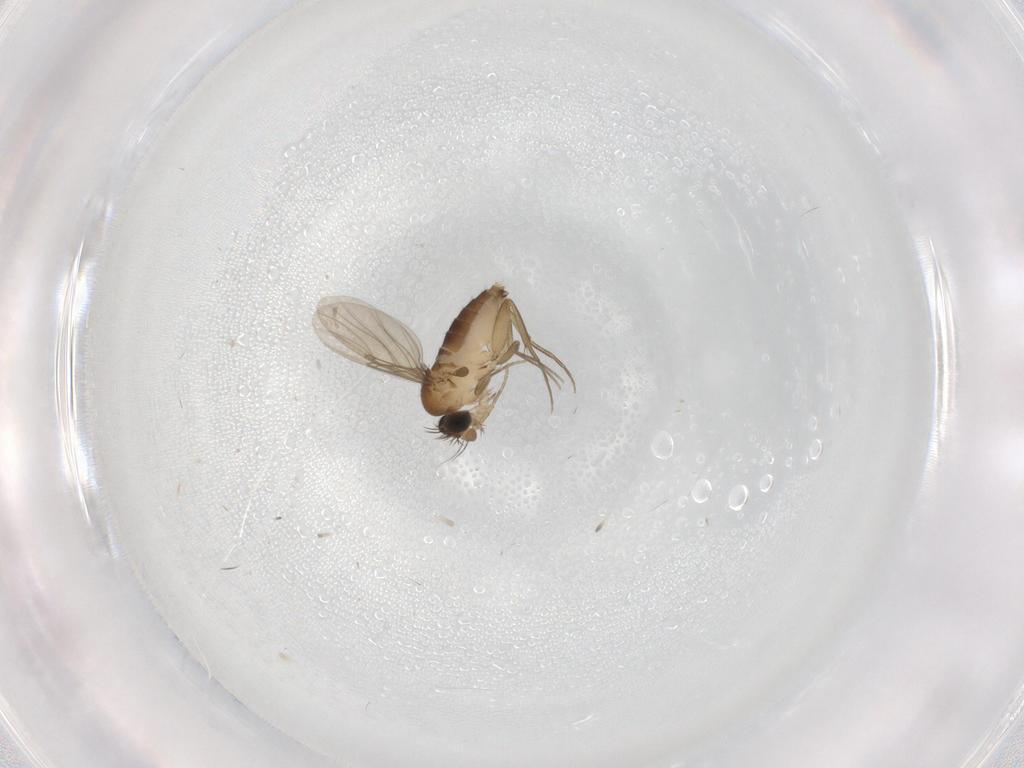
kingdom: Animalia
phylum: Arthropoda
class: Insecta
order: Diptera
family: Phoridae
